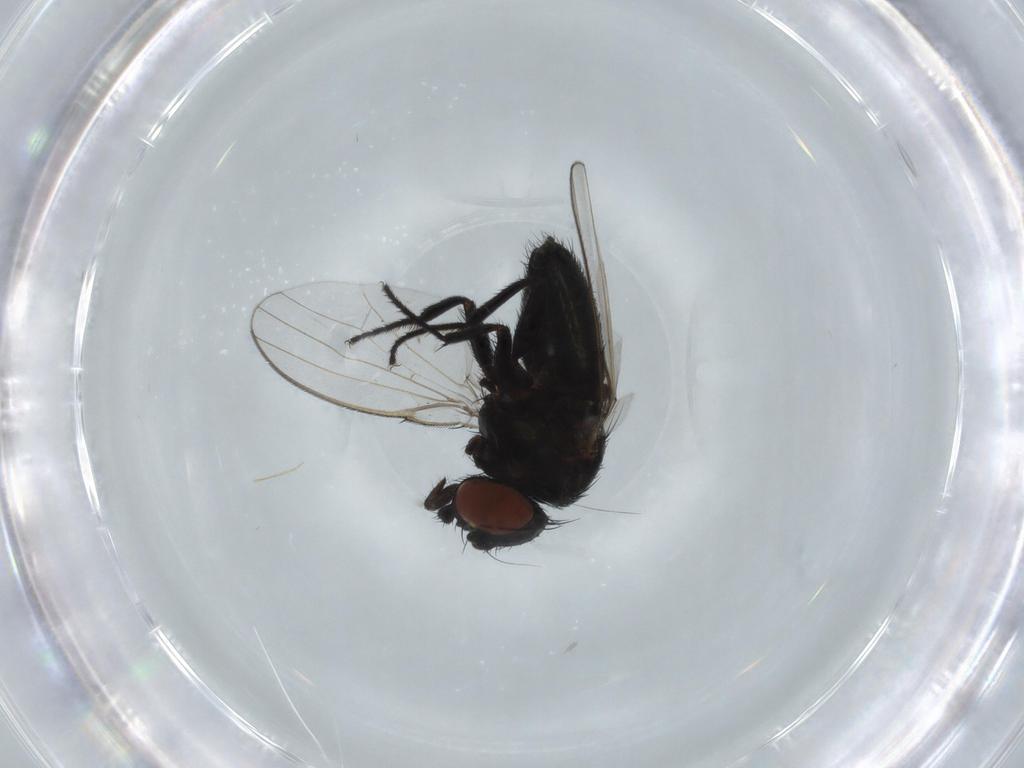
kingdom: Animalia
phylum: Arthropoda
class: Insecta
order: Diptera
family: Milichiidae
